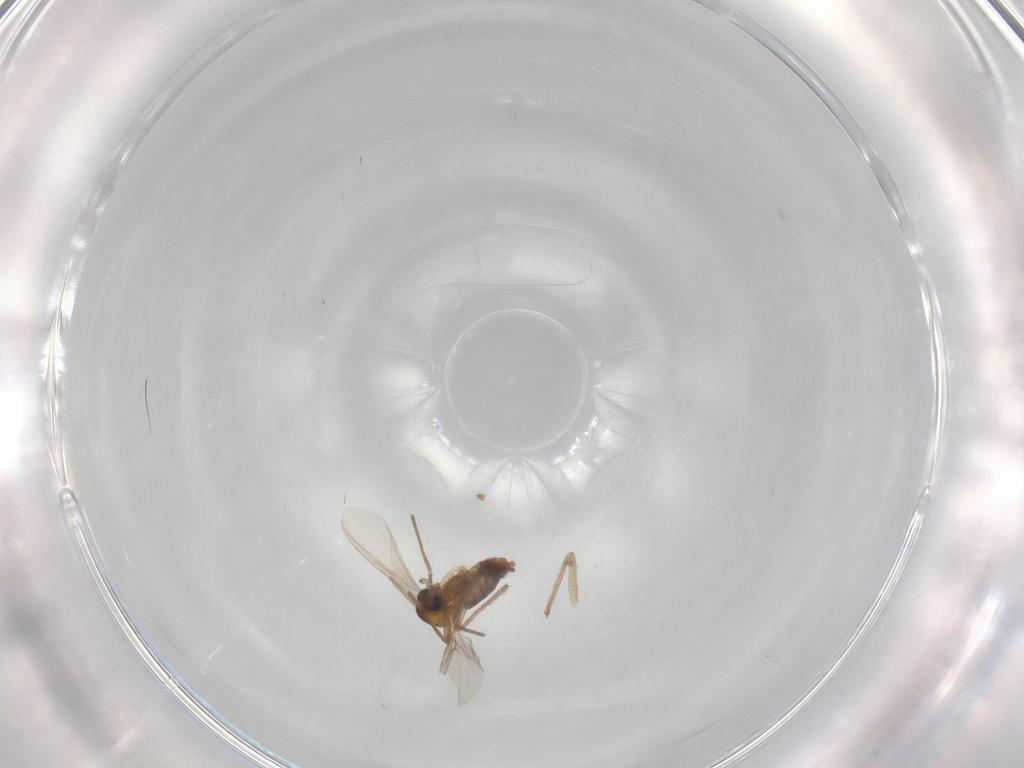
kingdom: Animalia
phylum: Arthropoda
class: Insecta
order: Diptera
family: Chironomidae
